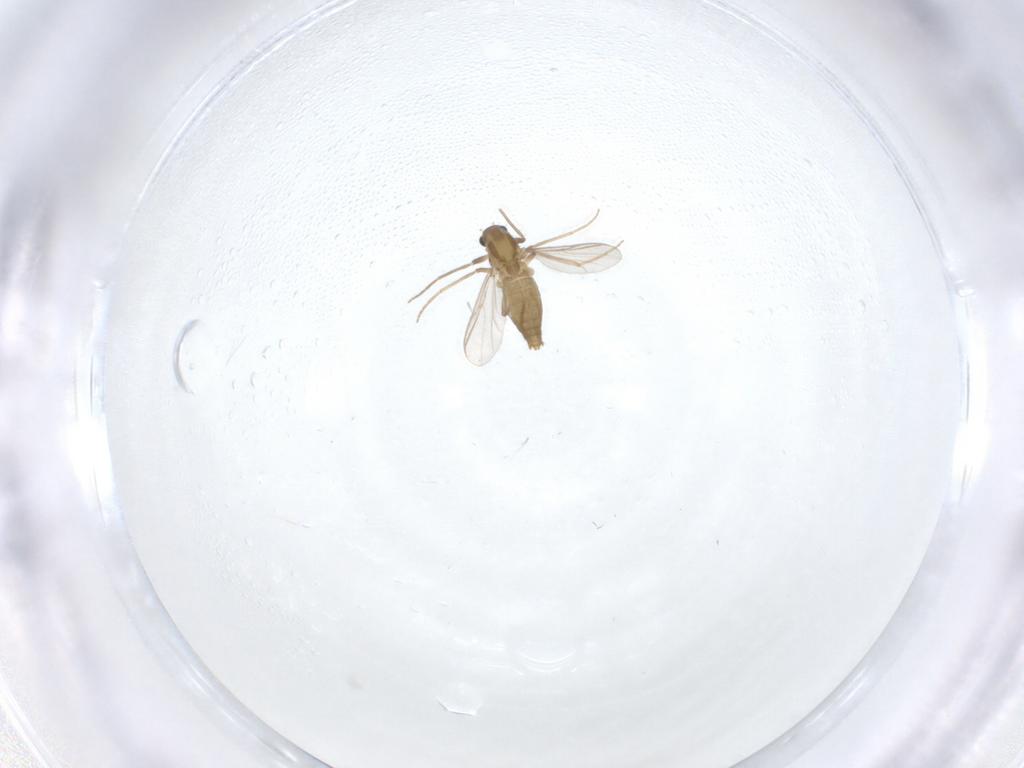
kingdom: Animalia
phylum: Arthropoda
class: Insecta
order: Diptera
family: Chironomidae
